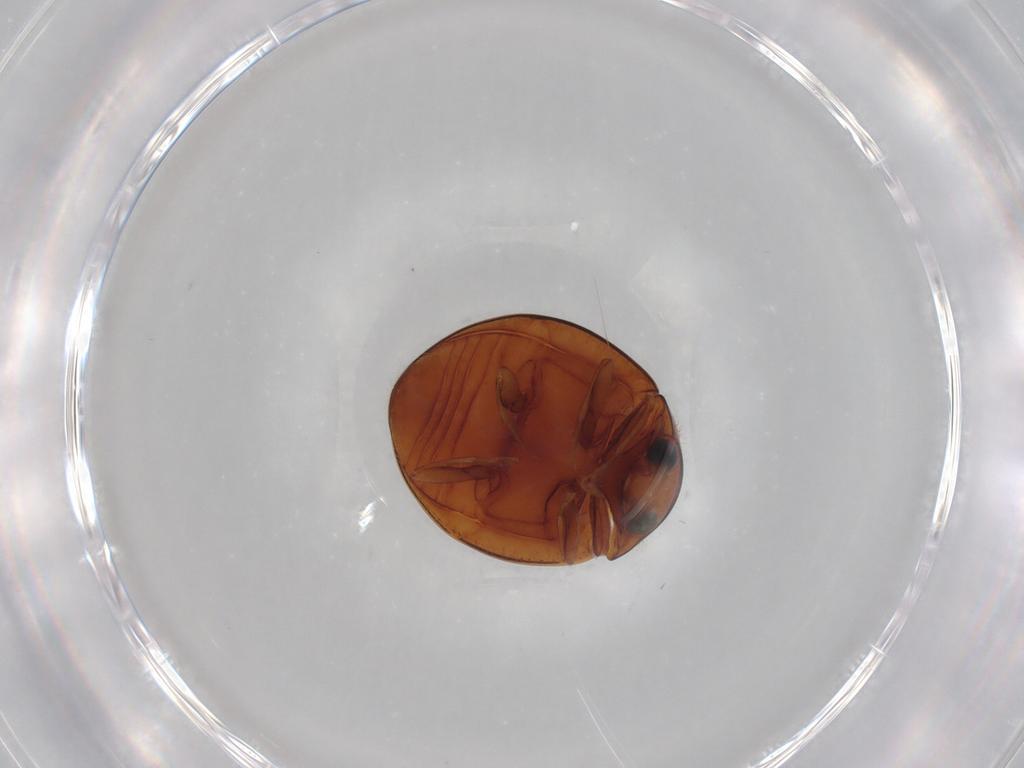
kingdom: Animalia
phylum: Arthropoda
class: Insecta
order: Coleoptera
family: Coccinellidae
